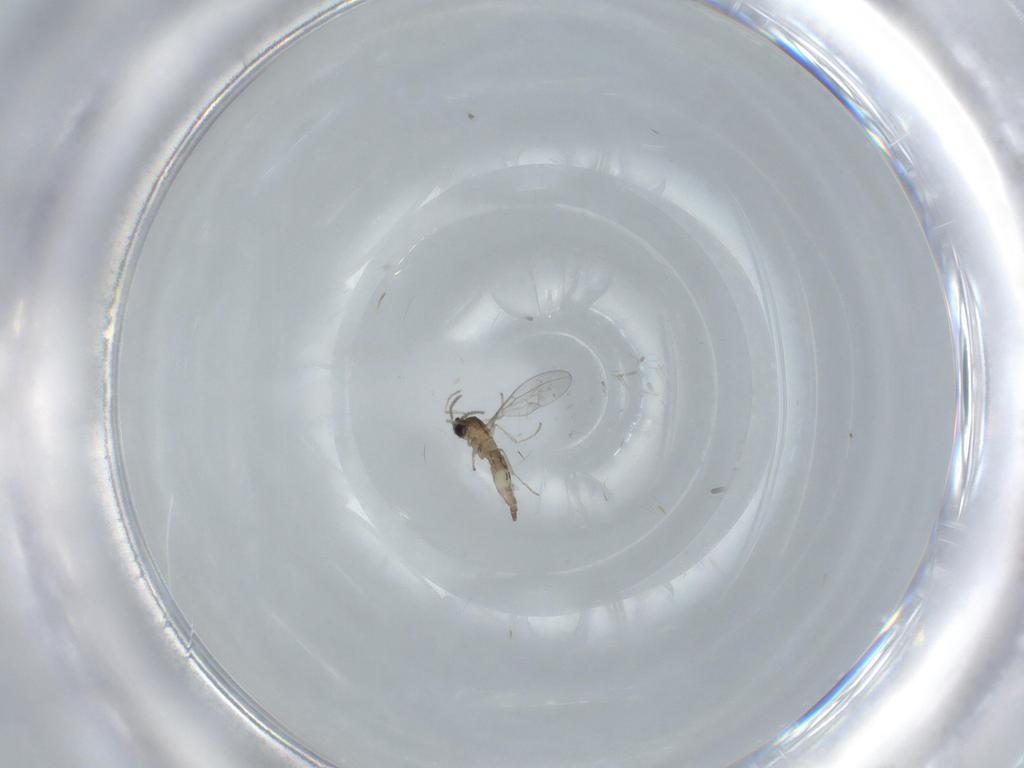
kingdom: Animalia
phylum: Arthropoda
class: Insecta
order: Diptera
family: Cecidomyiidae
